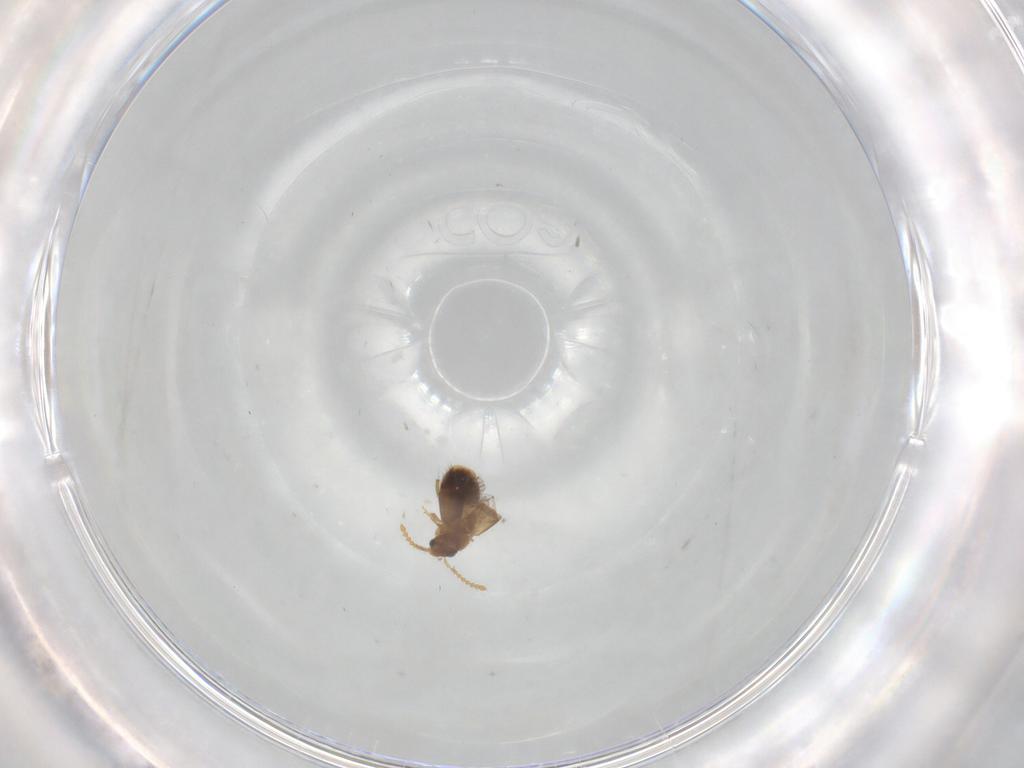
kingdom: Animalia
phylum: Arthropoda
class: Insecta
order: Coleoptera
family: Staphylinidae
